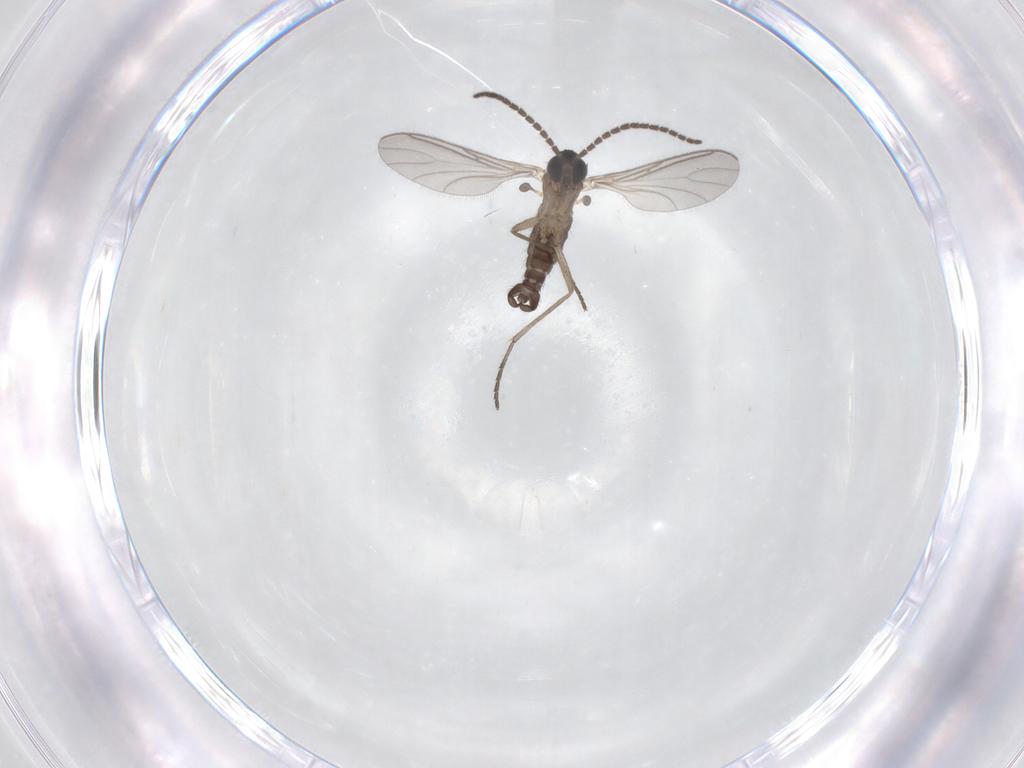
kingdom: Animalia
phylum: Arthropoda
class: Insecta
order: Diptera
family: Sciaridae
